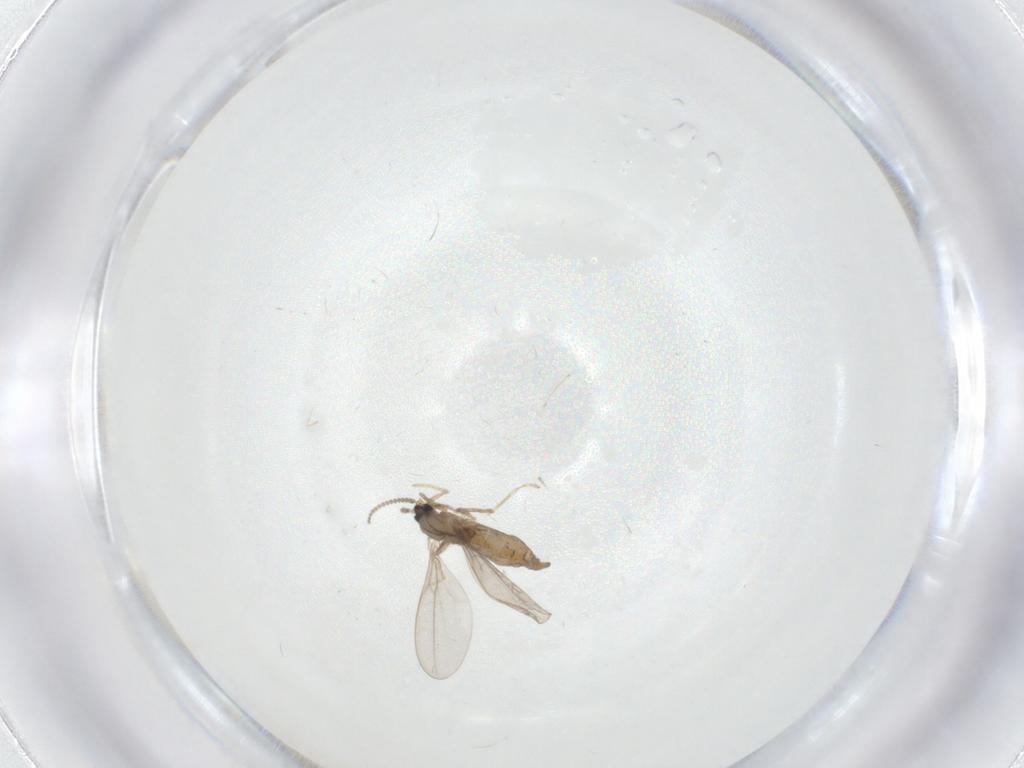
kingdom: Animalia
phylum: Arthropoda
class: Insecta
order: Diptera
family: Cecidomyiidae
